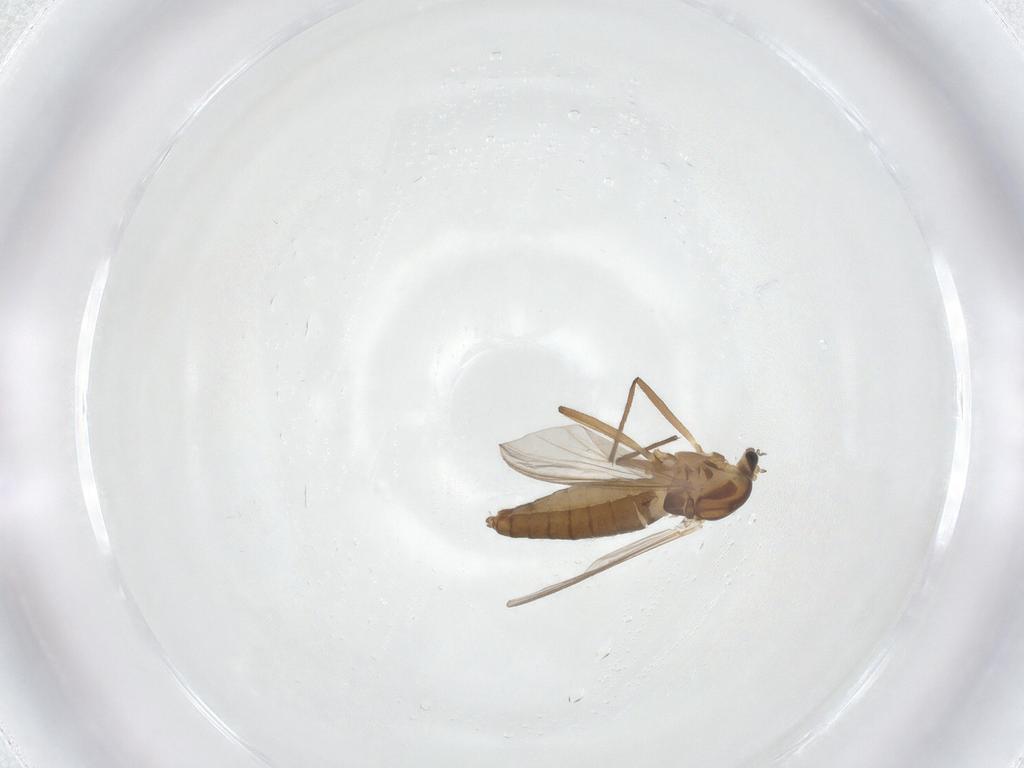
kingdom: Animalia
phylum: Arthropoda
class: Insecta
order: Diptera
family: Chironomidae
